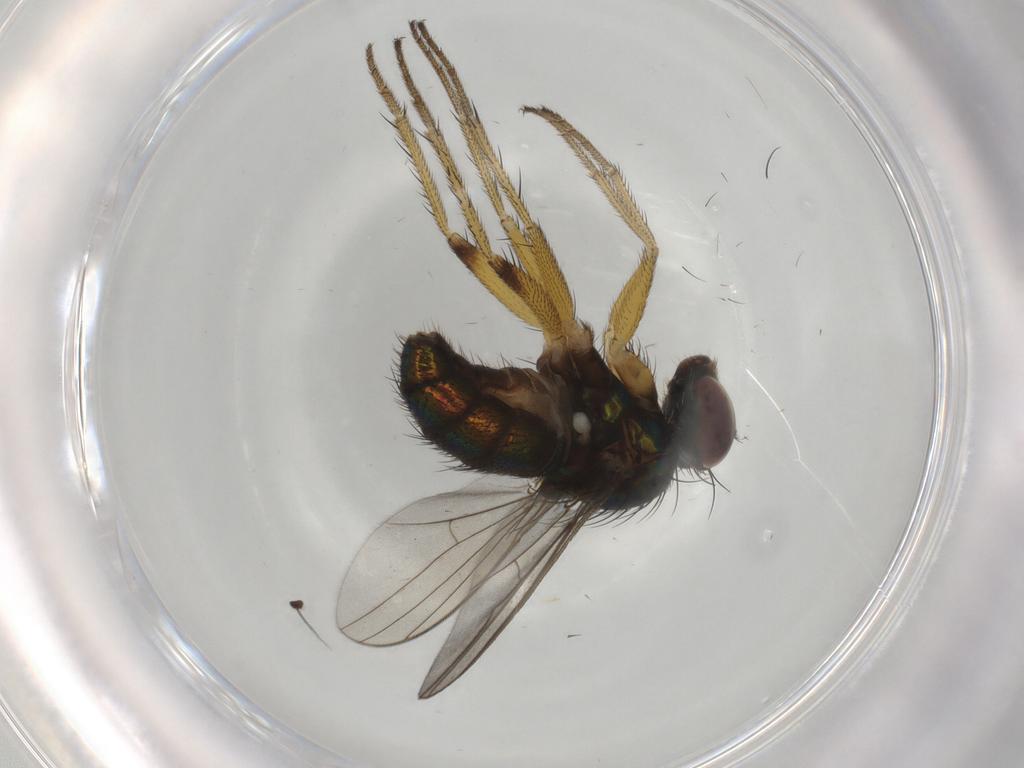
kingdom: Animalia
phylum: Arthropoda
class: Insecta
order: Diptera
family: Dolichopodidae
